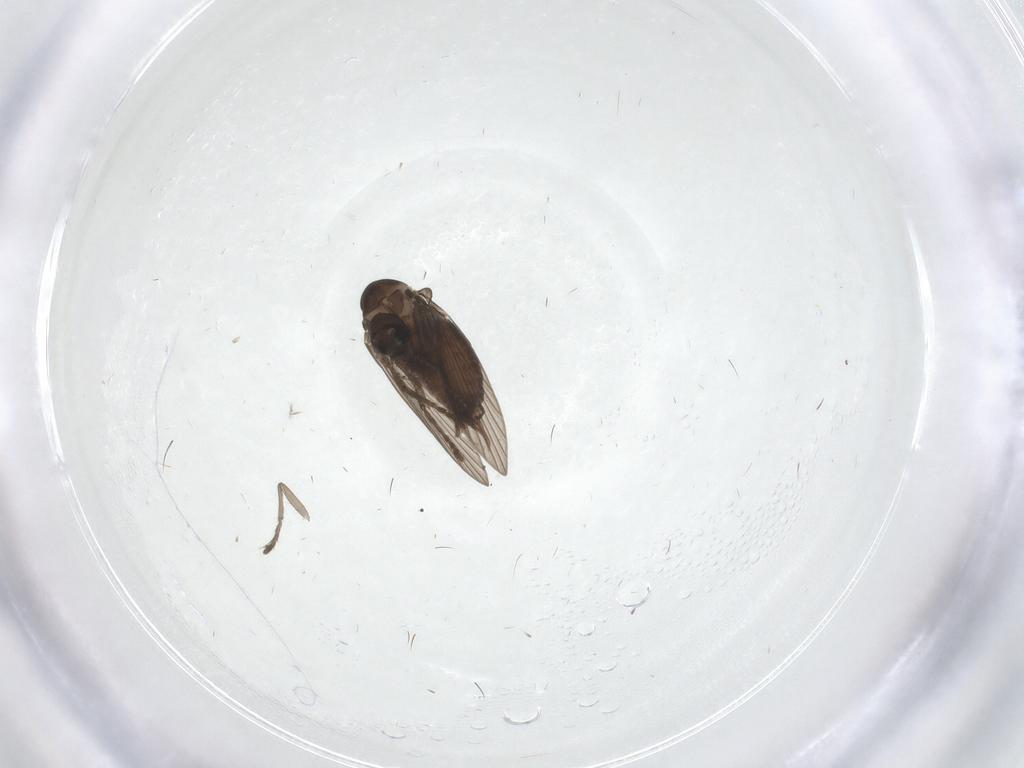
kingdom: Animalia
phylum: Arthropoda
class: Insecta
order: Diptera
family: Psychodidae
